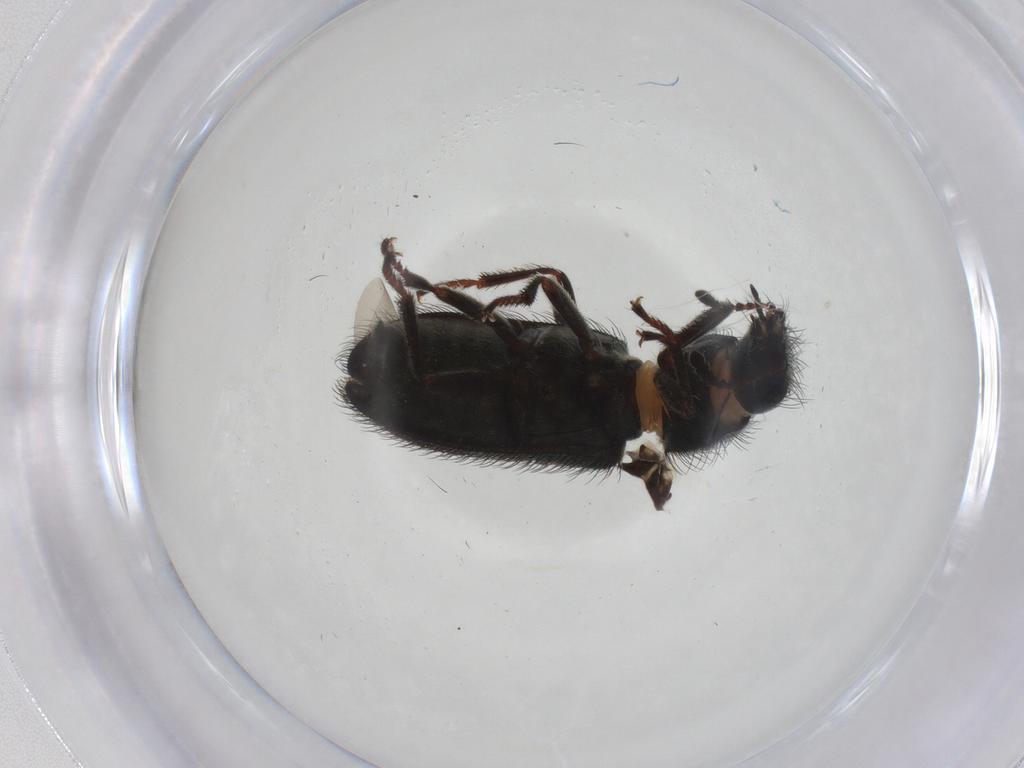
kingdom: Animalia
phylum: Arthropoda
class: Insecta
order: Coleoptera
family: Melyridae
